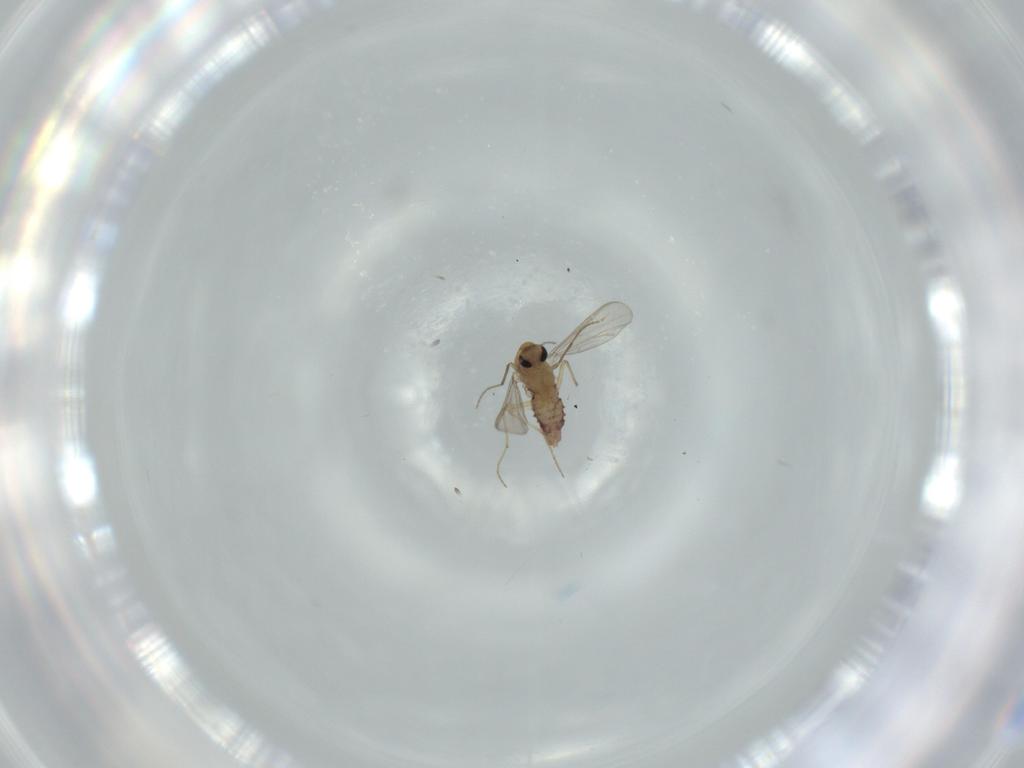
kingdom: Animalia
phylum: Arthropoda
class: Insecta
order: Diptera
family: Chironomidae
